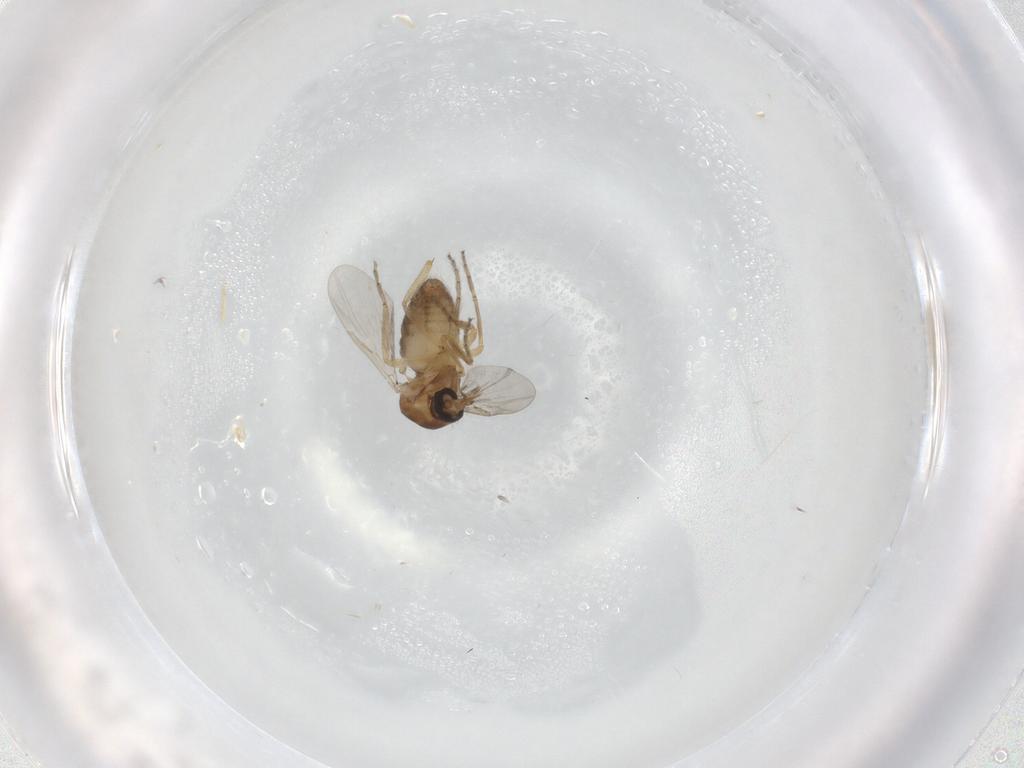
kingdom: Animalia
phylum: Arthropoda
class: Insecta
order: Diptera
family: Ceratopogonidae
